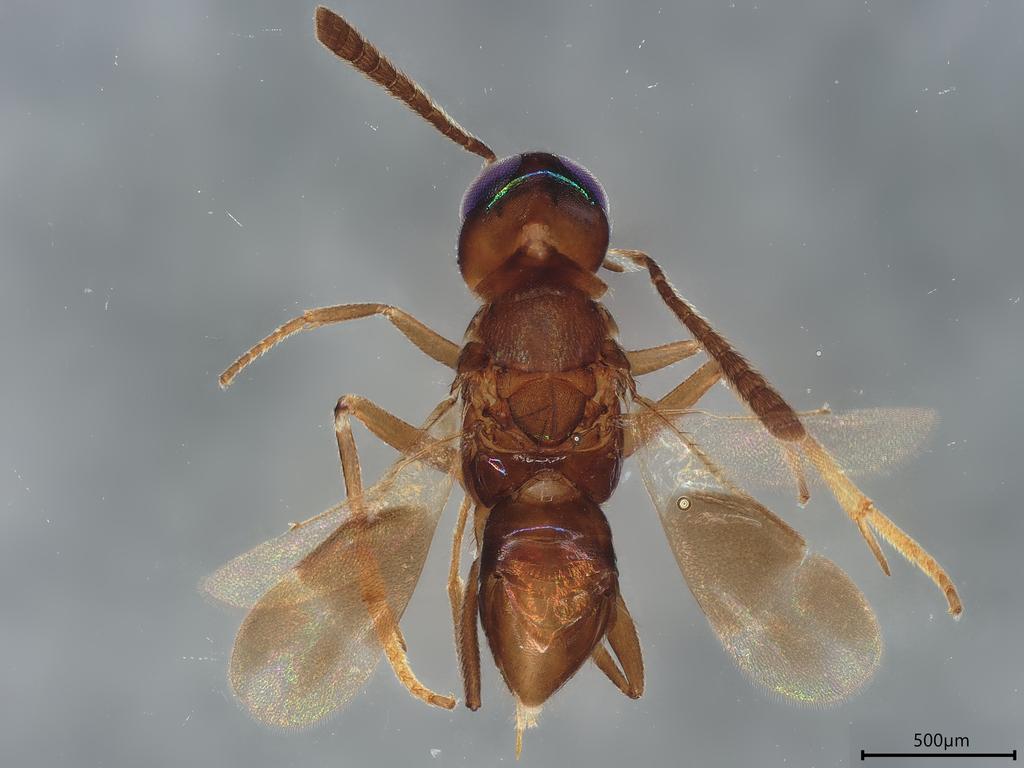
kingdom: Animalia
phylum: Arthropoda
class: Insecta
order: Hymenoptera
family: Encyrtidae
